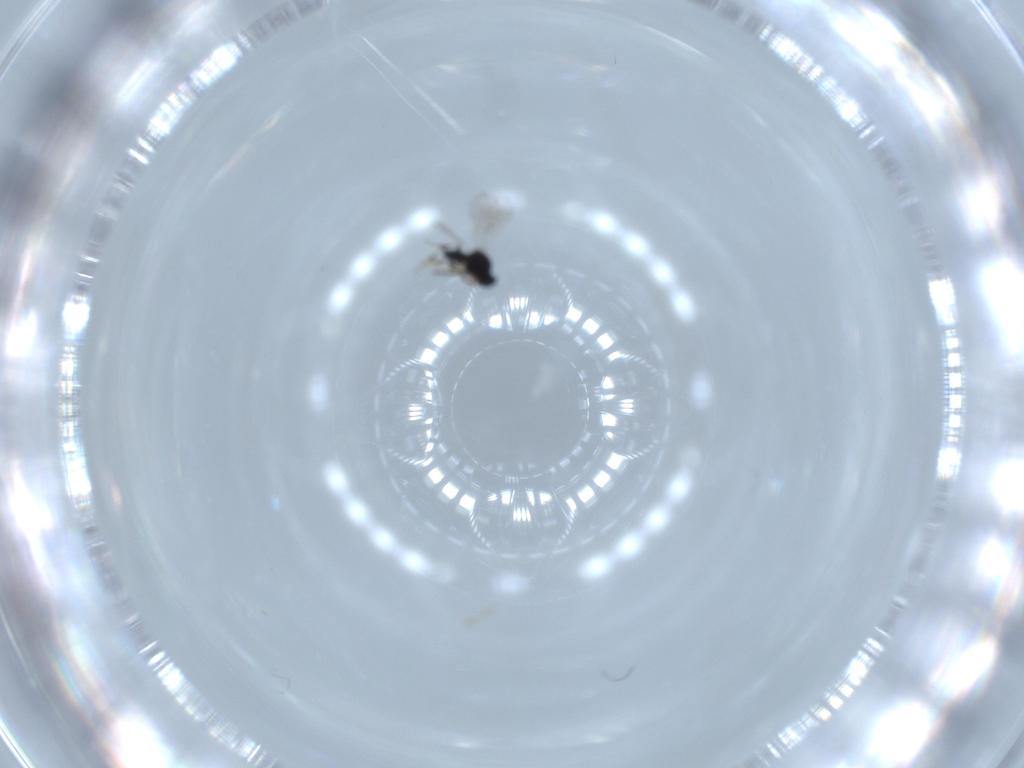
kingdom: Animalia
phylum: Arthropoda
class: Insecta
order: Hymenoptera
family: Platygastridae
